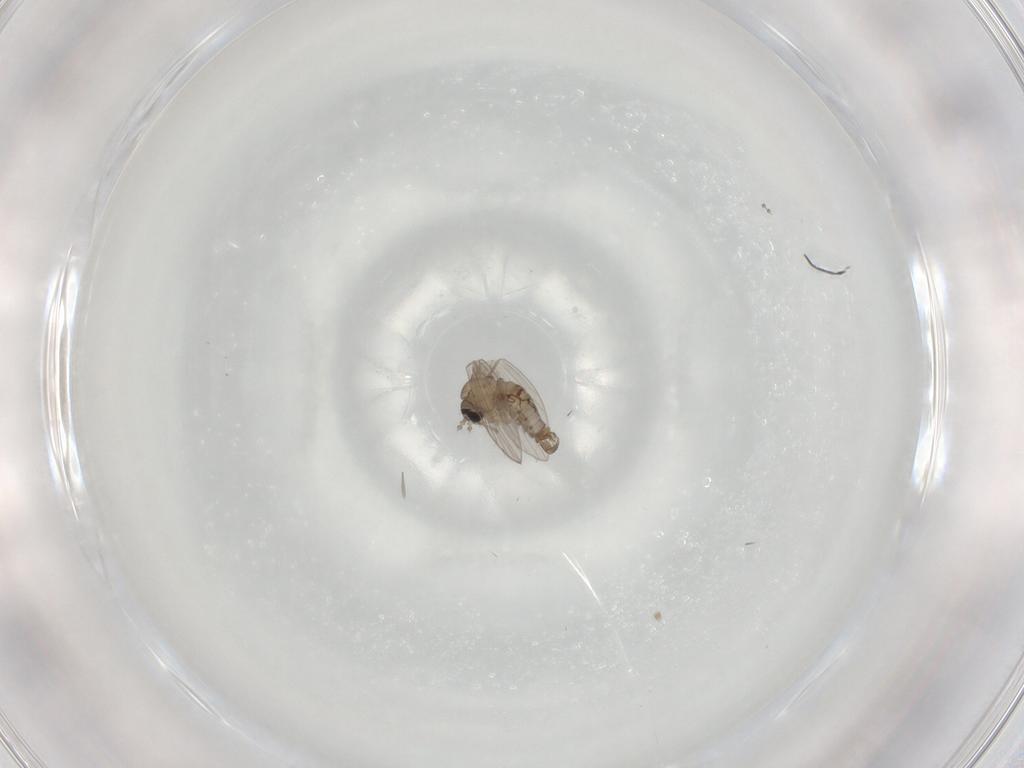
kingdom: Animalia
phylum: Arthropoda
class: Insecta
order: Diptera
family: Psychodidae
